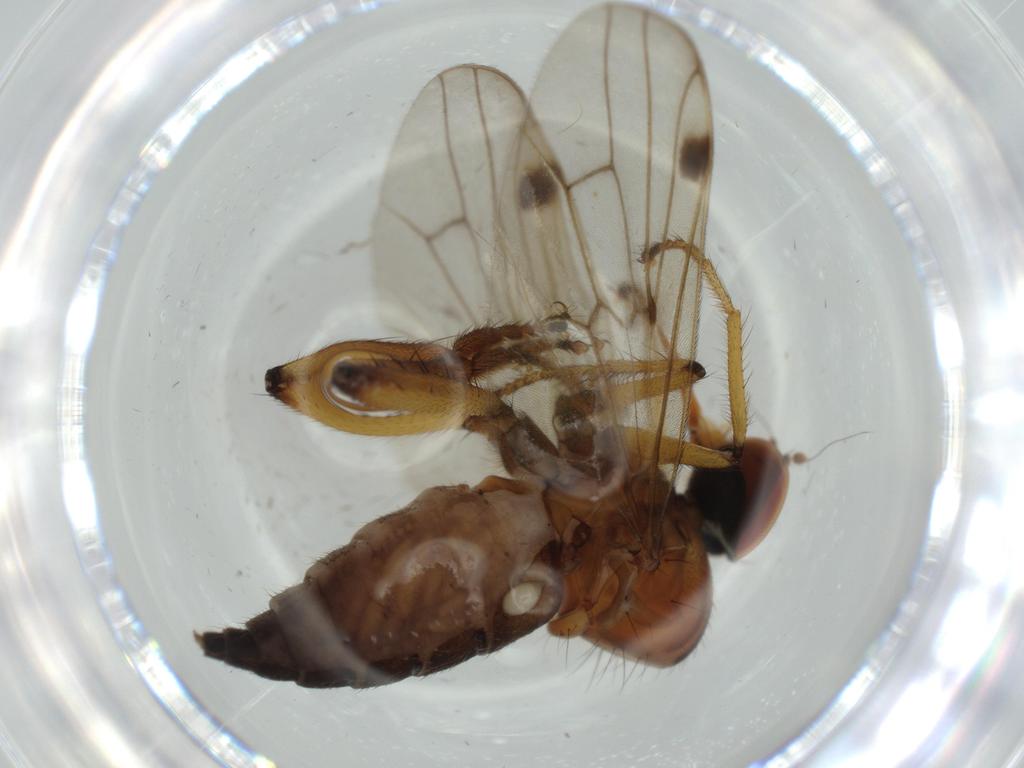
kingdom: Animalia
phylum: Arthropoda
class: Insecta
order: Diptera
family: Hybotidae
